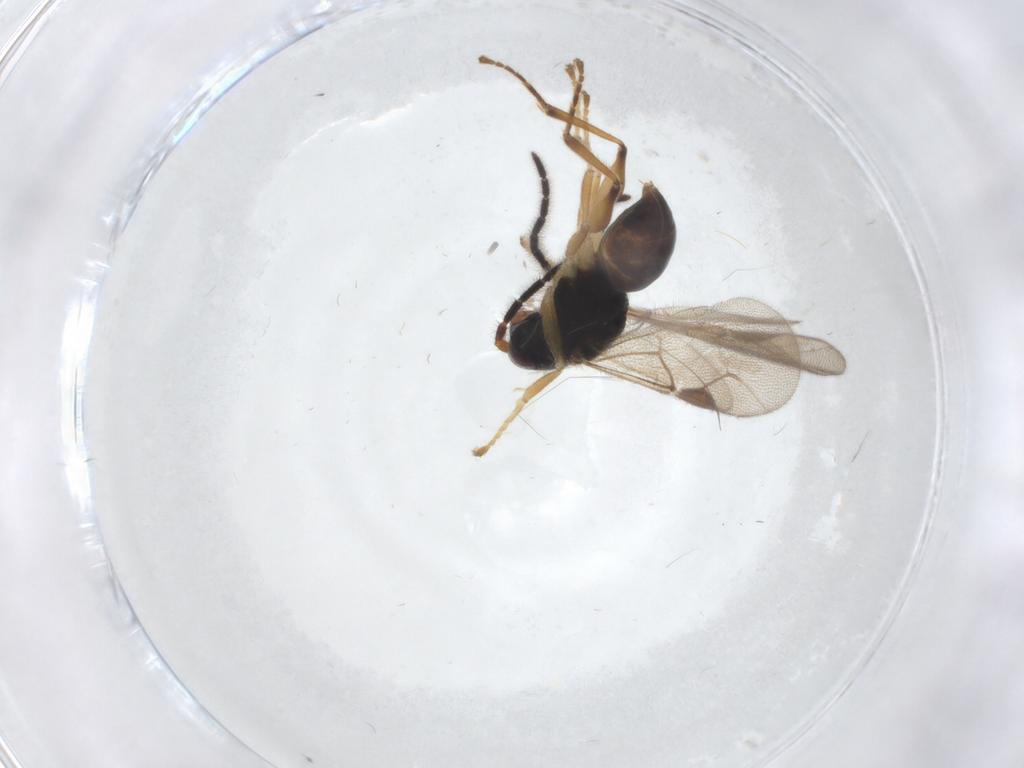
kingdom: Animalia
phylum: Arthropoda
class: Insecta
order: Hymenoptera
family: Dryinidae
